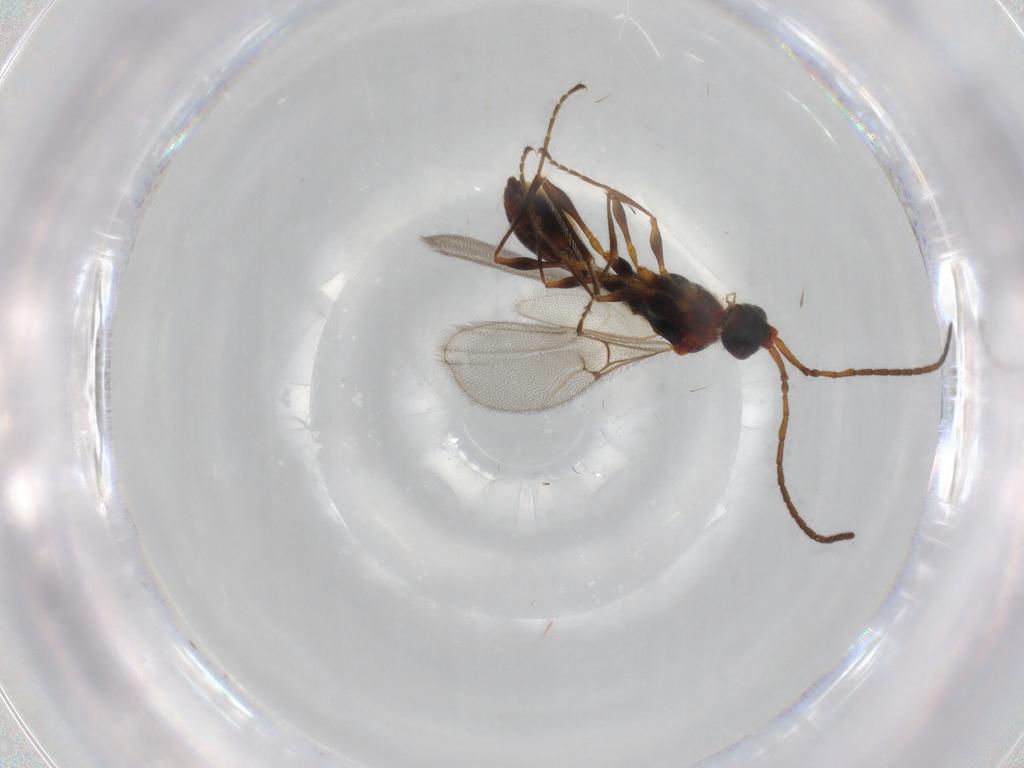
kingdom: Animalia
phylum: Arthropoda
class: Insecta
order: Hymenoptera
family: Diapriidae
